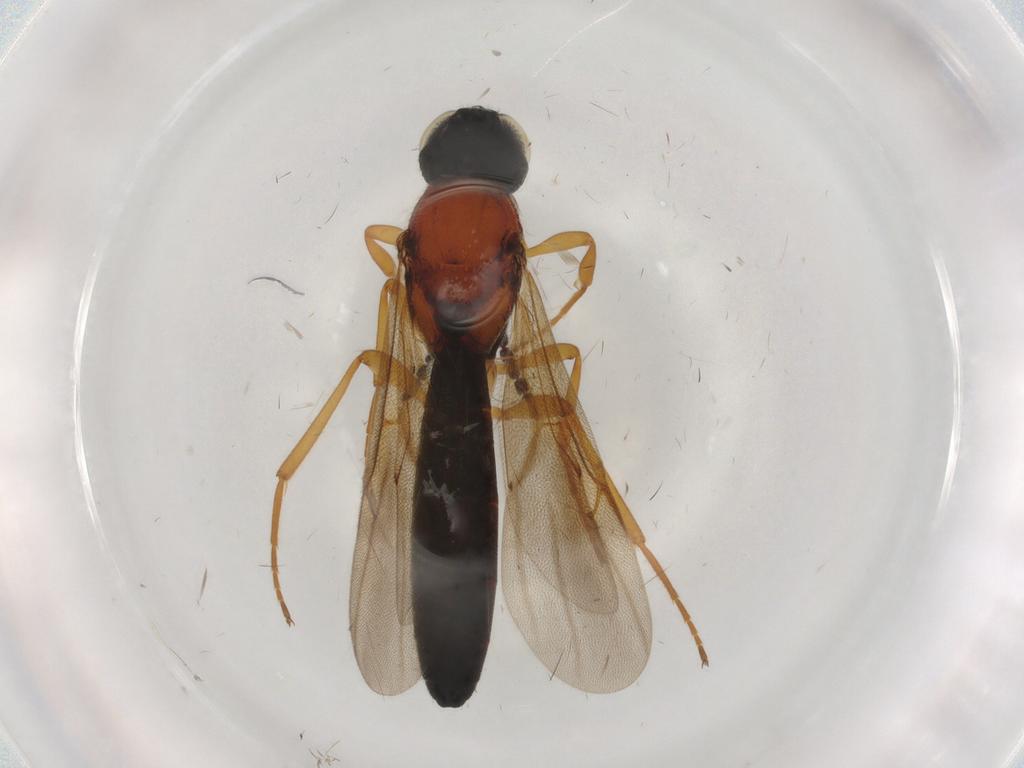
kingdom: Animalia
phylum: Arthropoda
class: Insecta
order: Hymenoptera
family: Scelionidae
